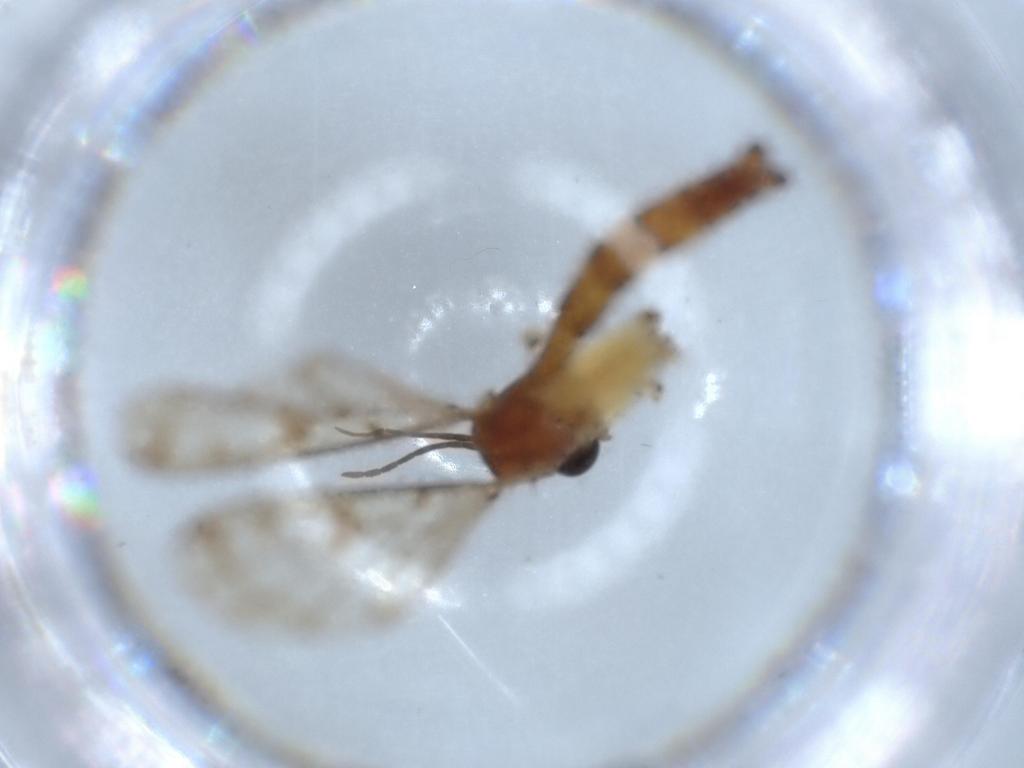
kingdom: Animalia
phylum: Arthropoda
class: Insecta
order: Diptera
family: Sciaridae
